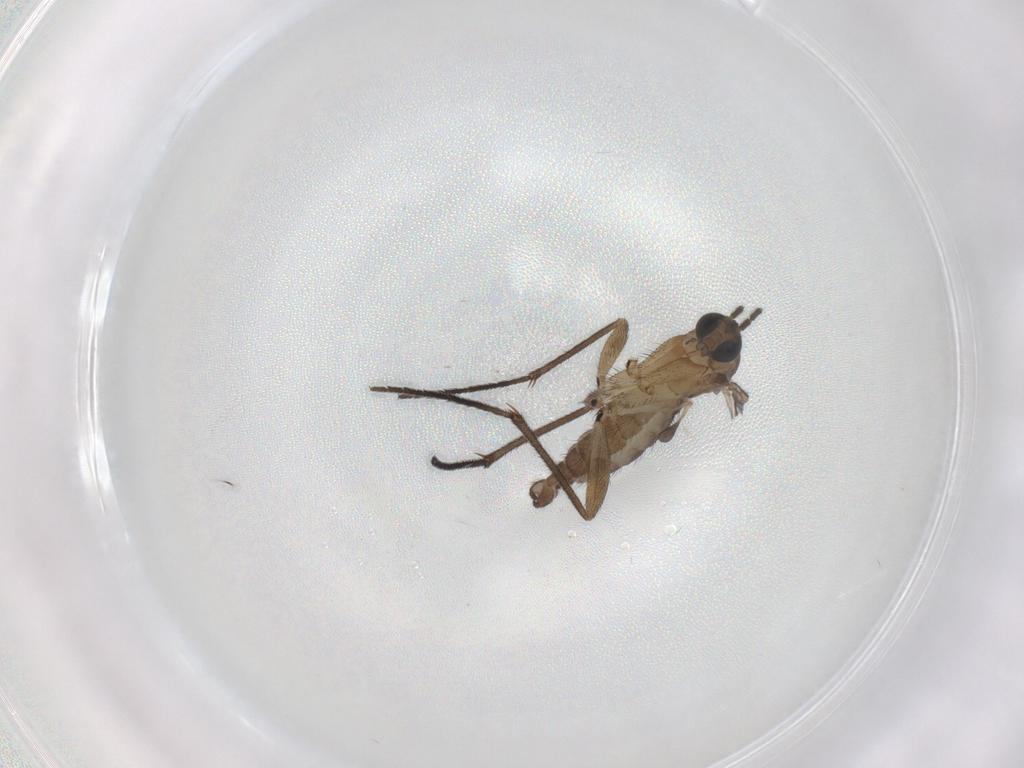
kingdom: Animalia
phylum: Arthropoda
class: Insecta
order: Diptera
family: Sciaridae
